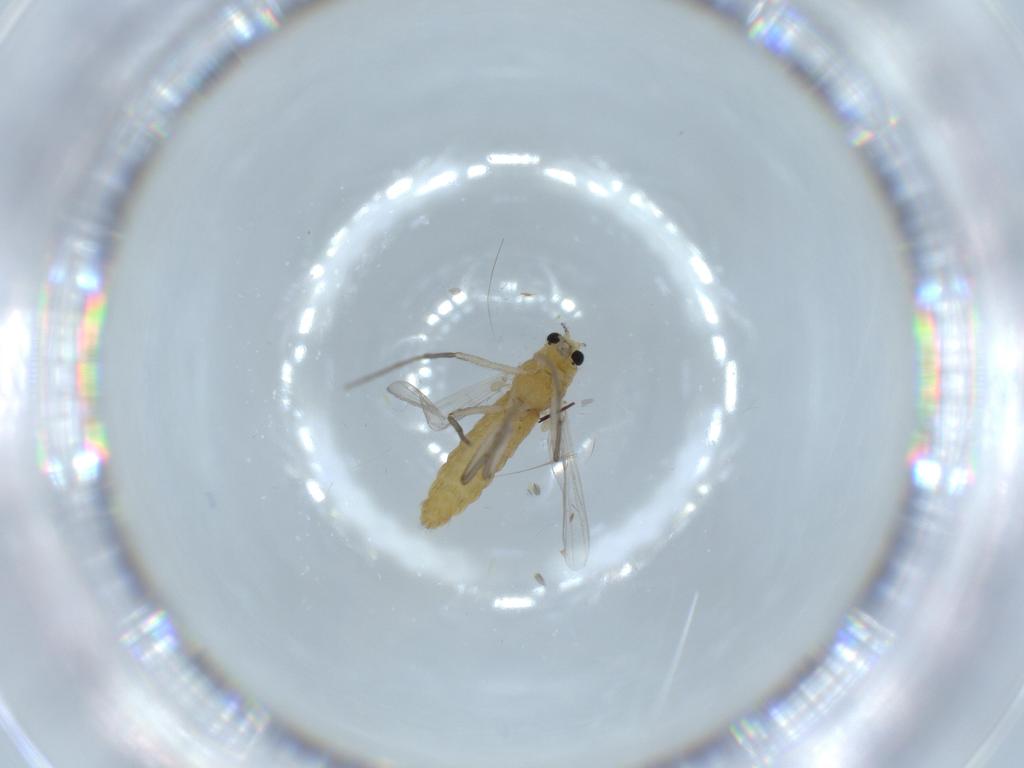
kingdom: Animalia
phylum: Arthropoda
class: Insecta
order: Diptera
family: Chironomidae
